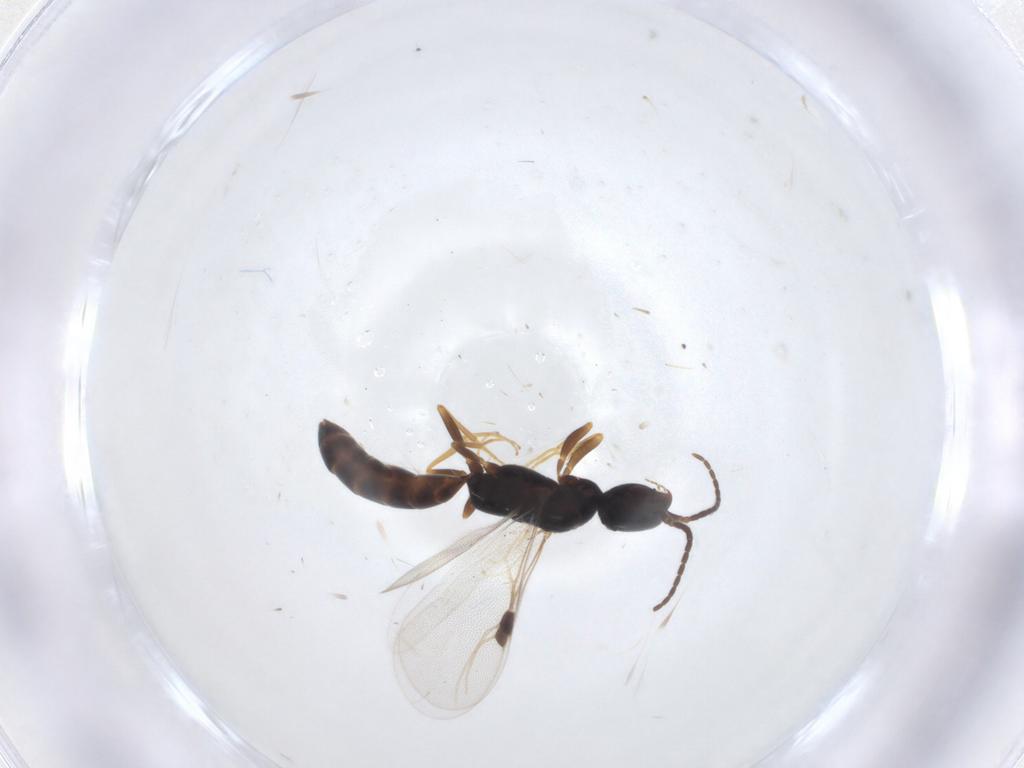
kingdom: Animalia
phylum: Arthropoda
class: Insecta
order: Hymenoptera
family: Bethylidae
